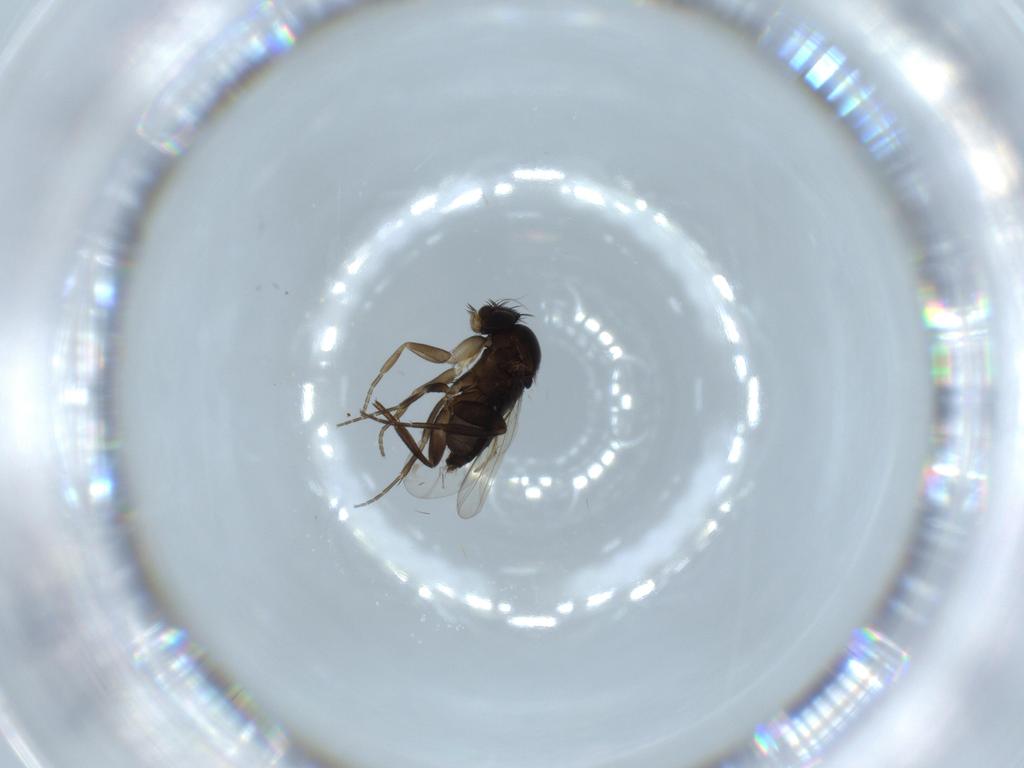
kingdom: Animalia
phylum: Arthropoda
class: Insecta
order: Diptera
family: Phoridae
